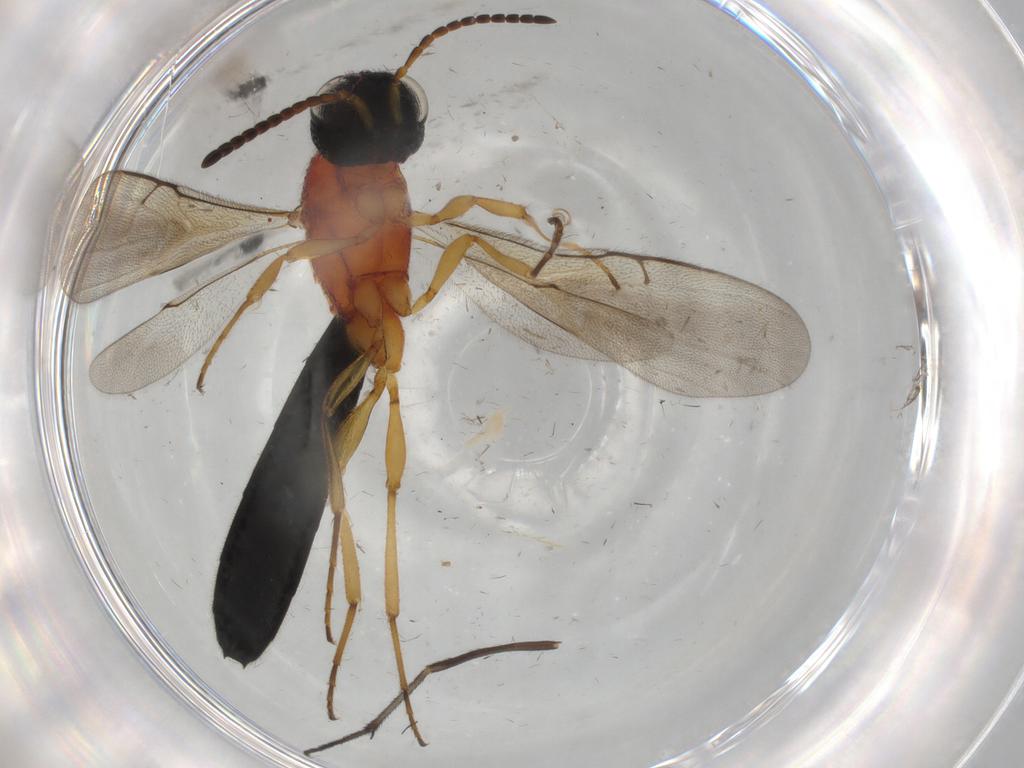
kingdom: Animalia
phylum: Arthropoda
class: Insecta
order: Hymenoptera
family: Scelionidae
